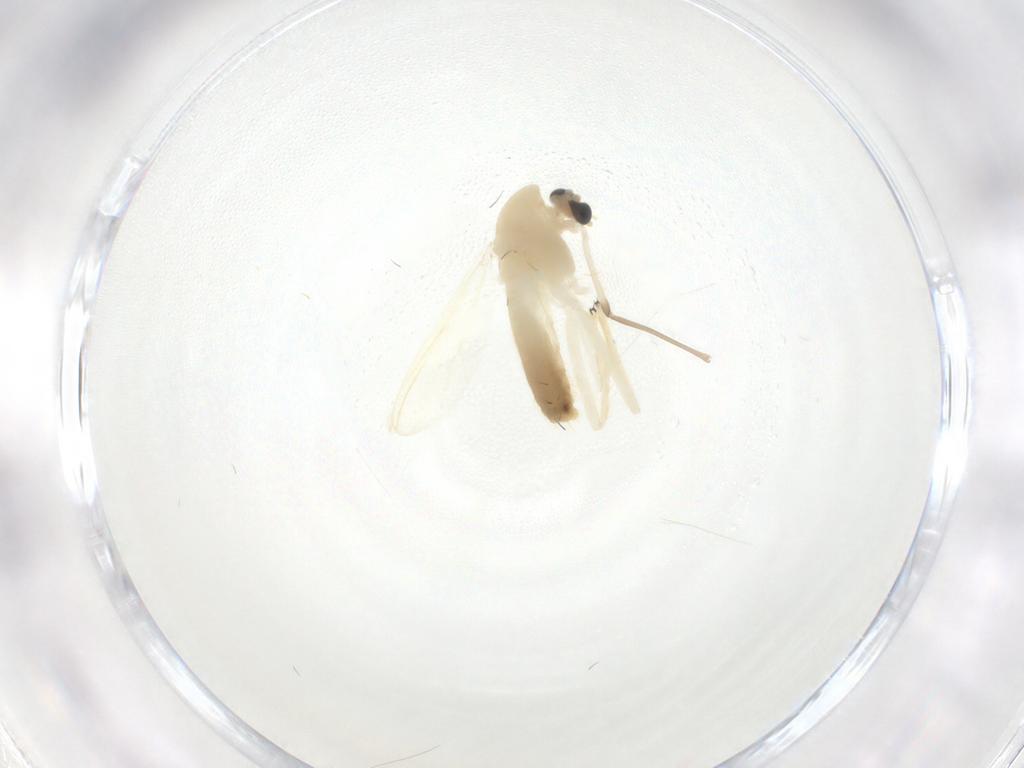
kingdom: Animalia
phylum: Arthropoda
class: Insecta
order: Diptera
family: Chironomidae
